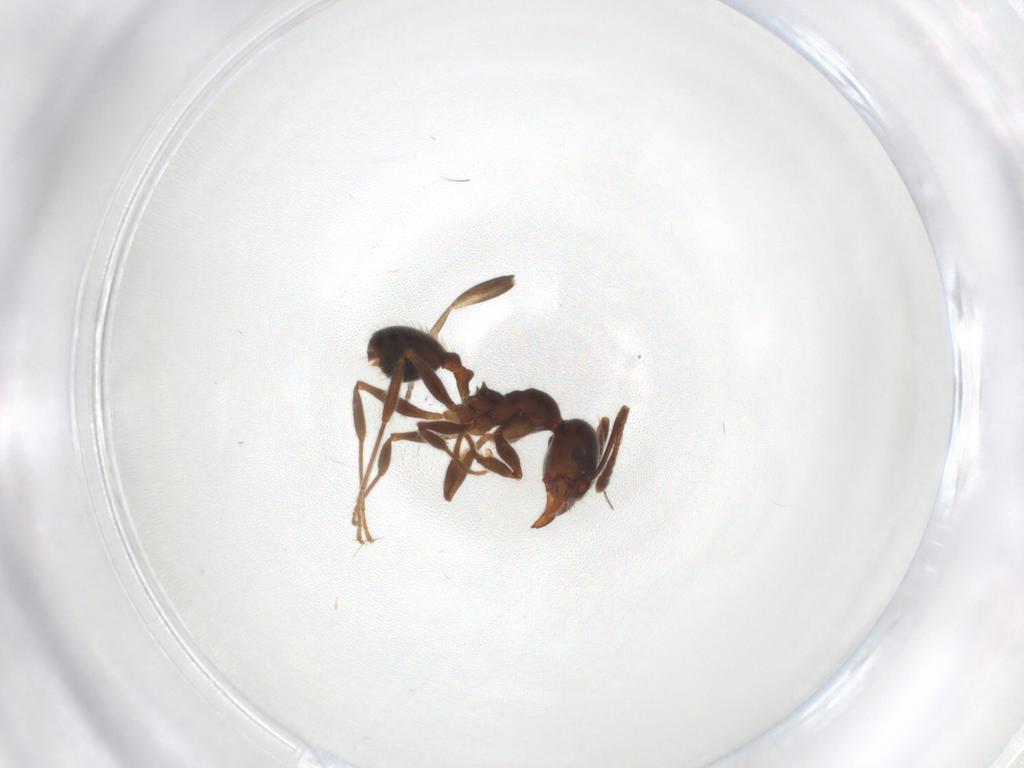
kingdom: Animalia
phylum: Arthropoda
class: Insecta
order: Hymenoptera
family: Formicidae
